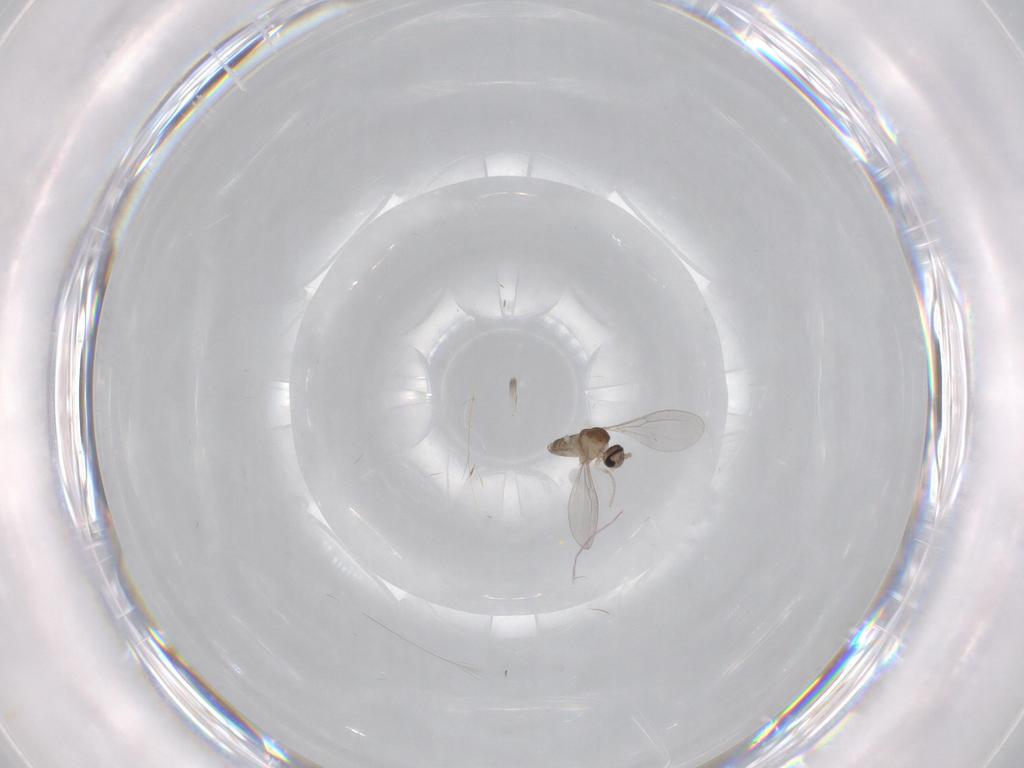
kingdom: Animalia
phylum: Arthropoda
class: Insecta
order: Diptera
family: Cecidomyiidae
